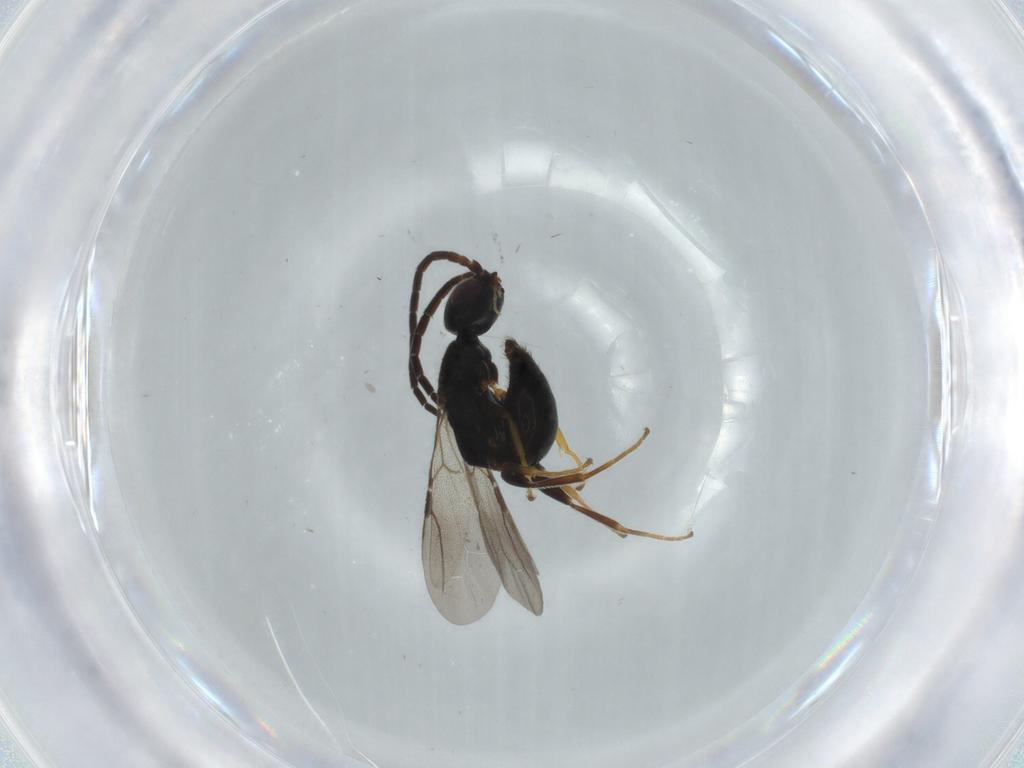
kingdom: Animalia
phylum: Arthropoda
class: Insecta
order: Hymenoptera
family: Bethylidae
